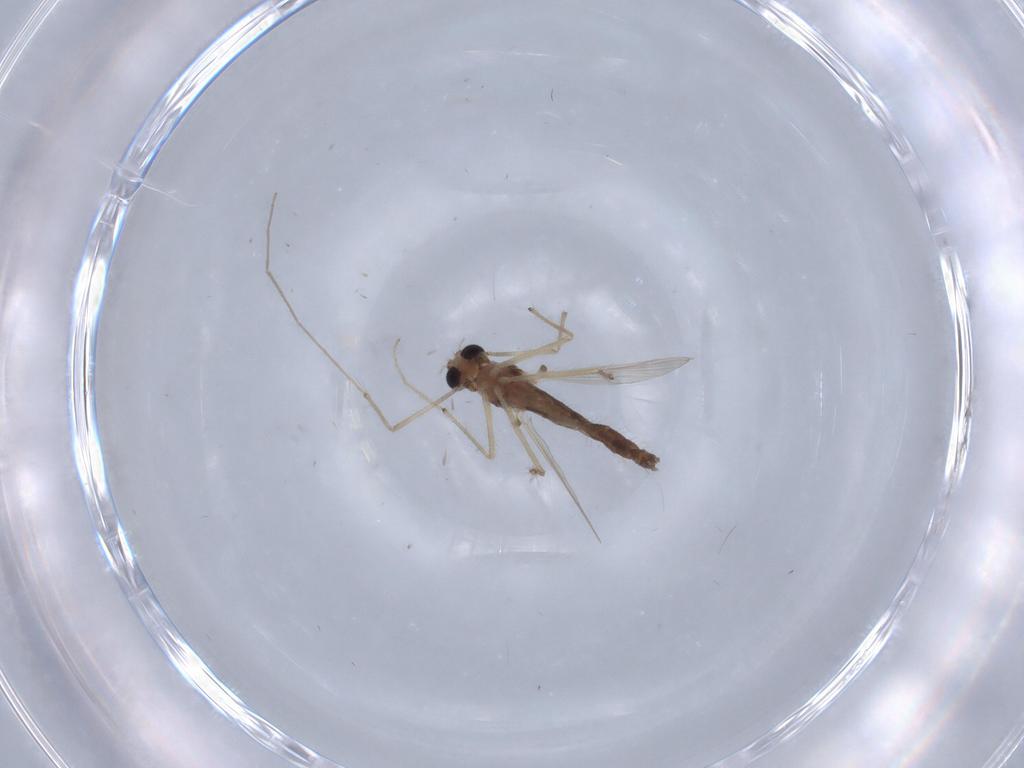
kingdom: Animalia
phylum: Arthropoda
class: Insecta
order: Diptera
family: Chironomidae
